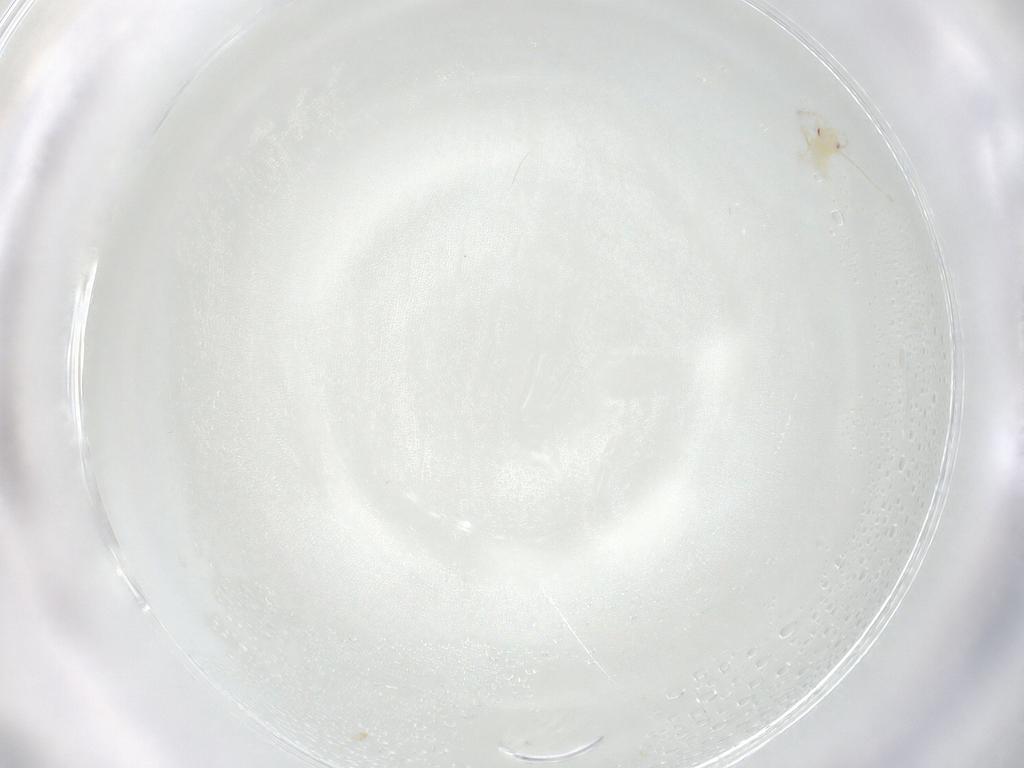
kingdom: Animalia
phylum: Arthropoda
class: Insecta
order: Hemiptera
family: Miridae
